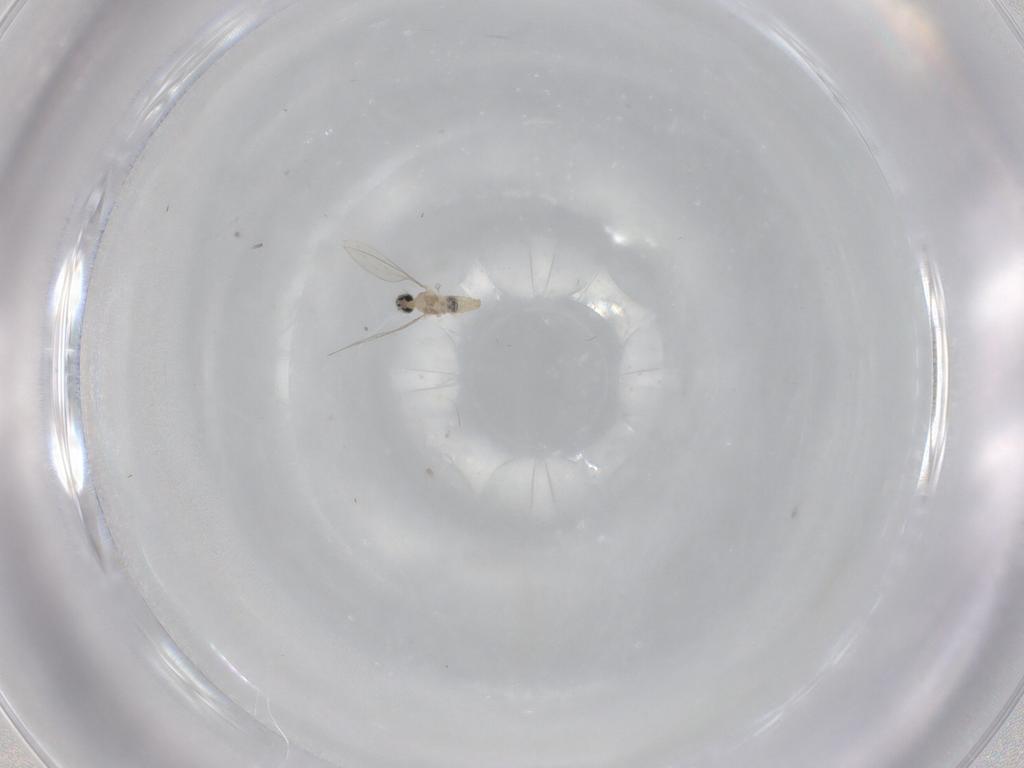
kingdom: Animalia
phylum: Arthropoda
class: Insecta
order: Diptera
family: Cecidomyiidae
